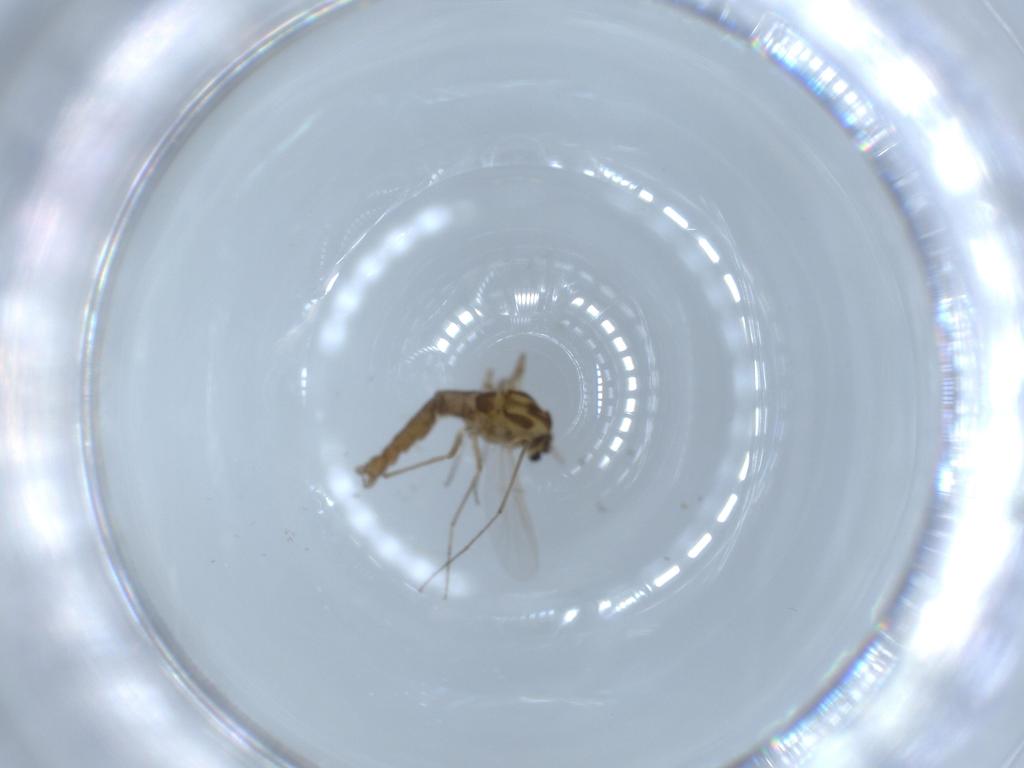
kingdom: Animalia
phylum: Arthropoda
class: Insecta
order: Diptera
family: Chironomidae
